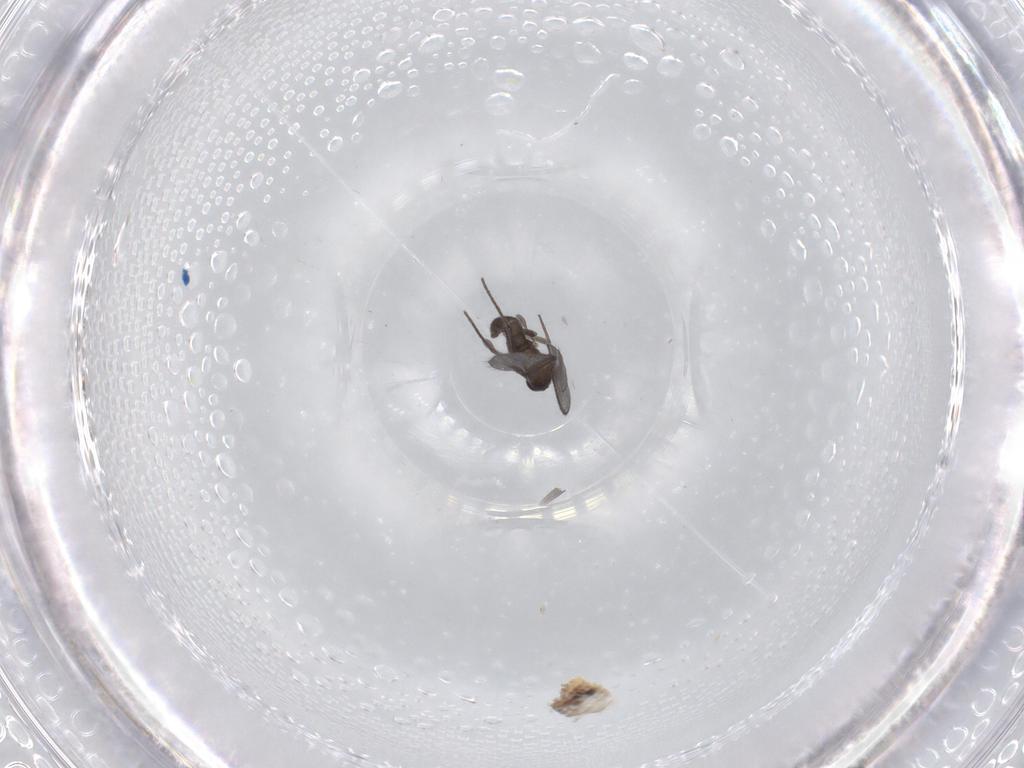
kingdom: Animalia
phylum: Arthropoda
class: Insecta
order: Diptera
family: Sciaridae
